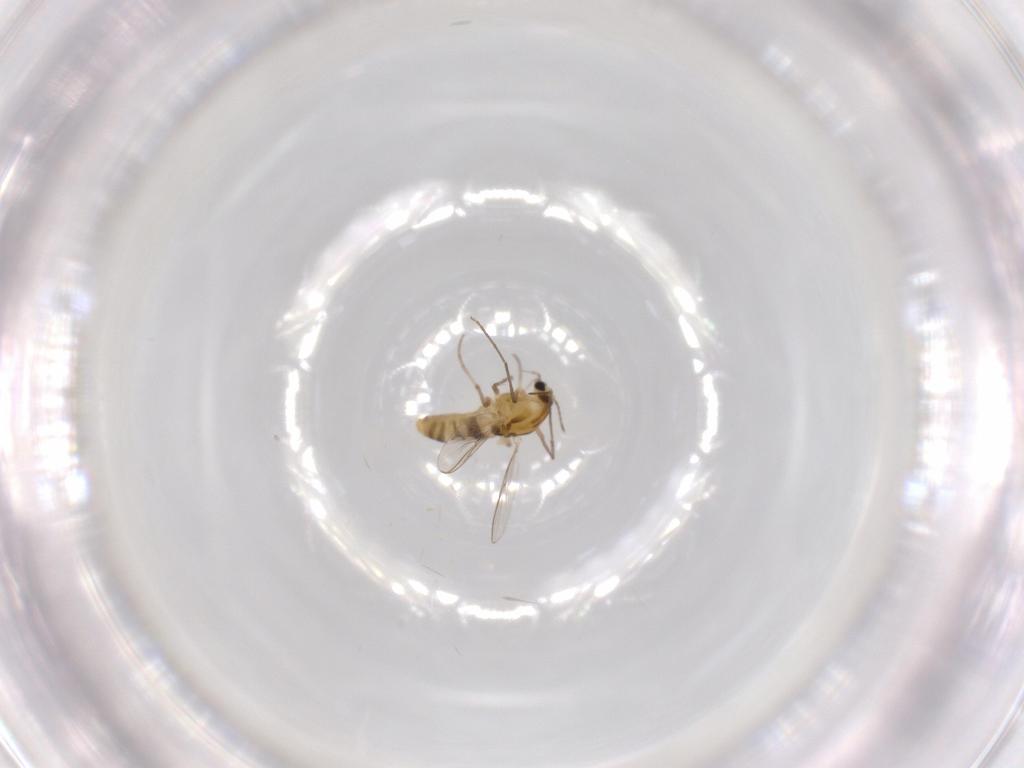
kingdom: Animalia
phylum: Arthropoda
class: Insecta
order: Diptera
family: Chironomidae
